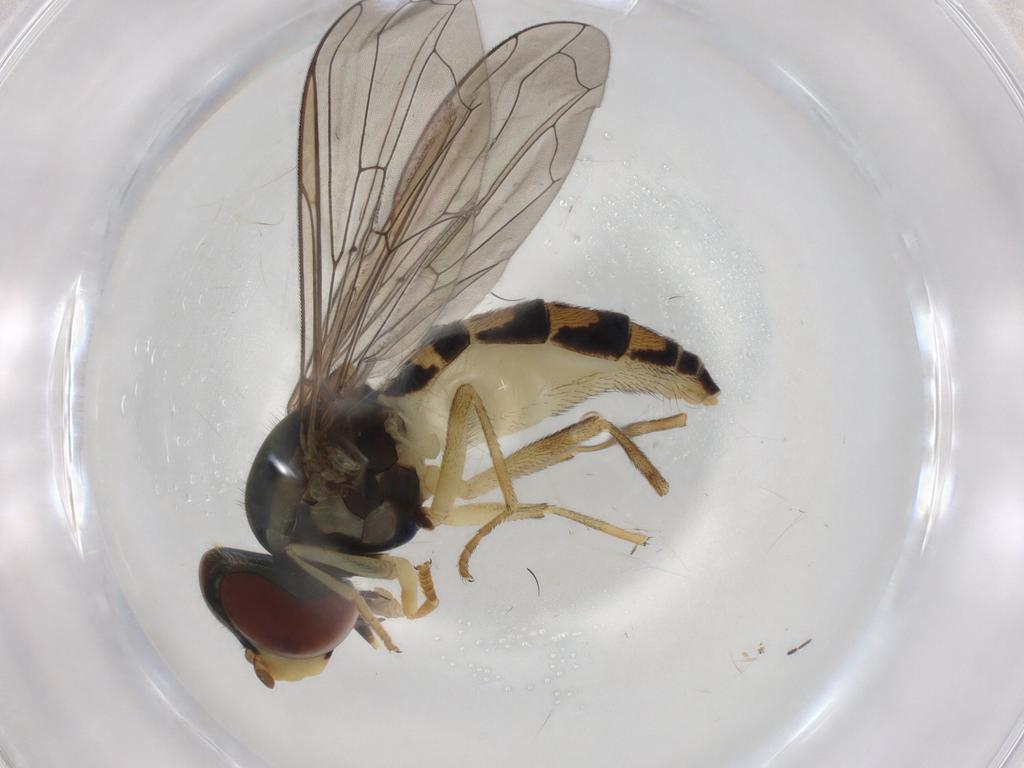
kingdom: Animalia
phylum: Arthropoda
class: Insecta
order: Diptera
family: Syrphidae
